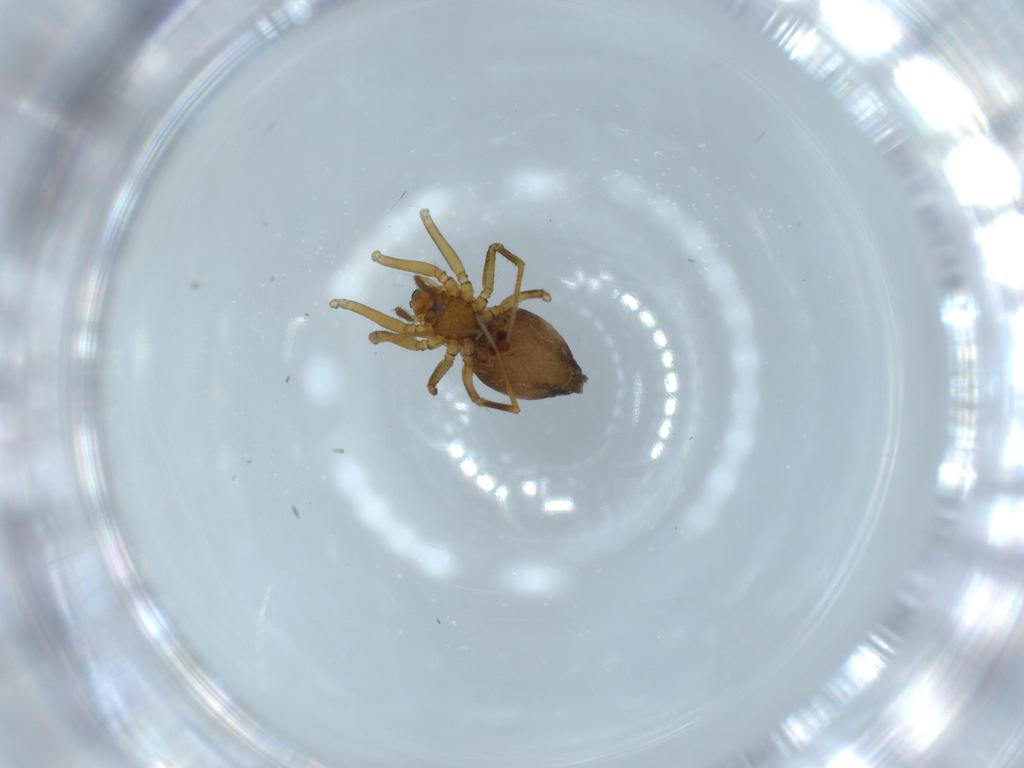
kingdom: Animalia
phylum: Arthropoda
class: Arachnida
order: Araneae
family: Linyphiidae
